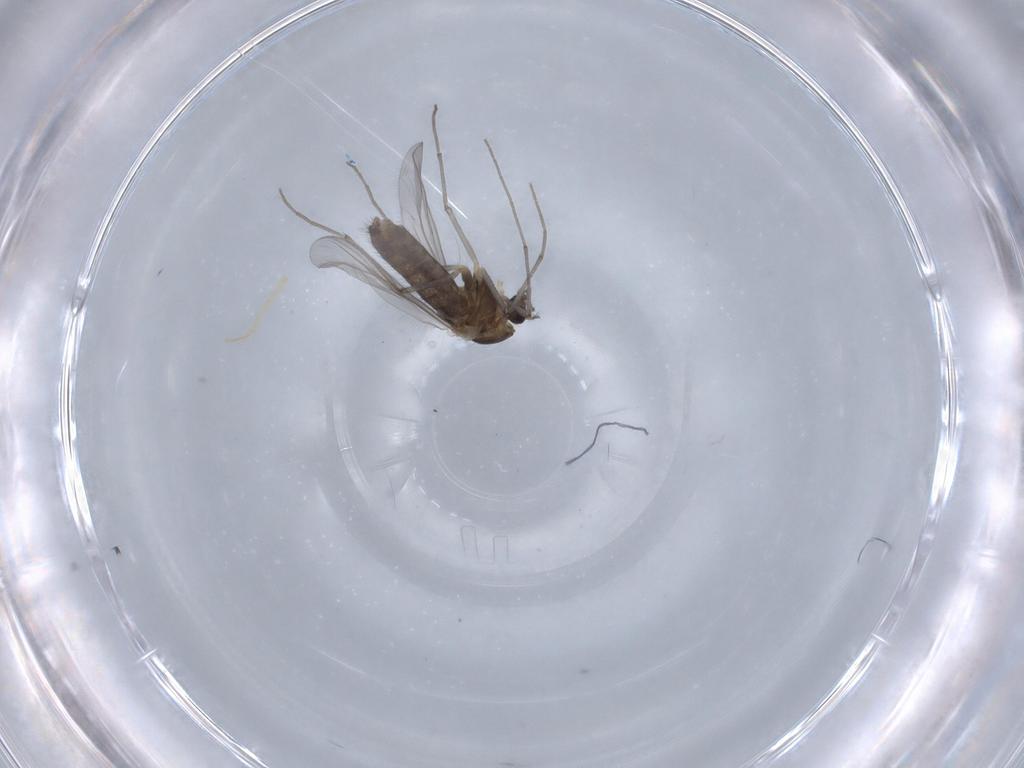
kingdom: Animalia
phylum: Arthropoda
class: Insecta
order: Diptera
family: Chironomidae
